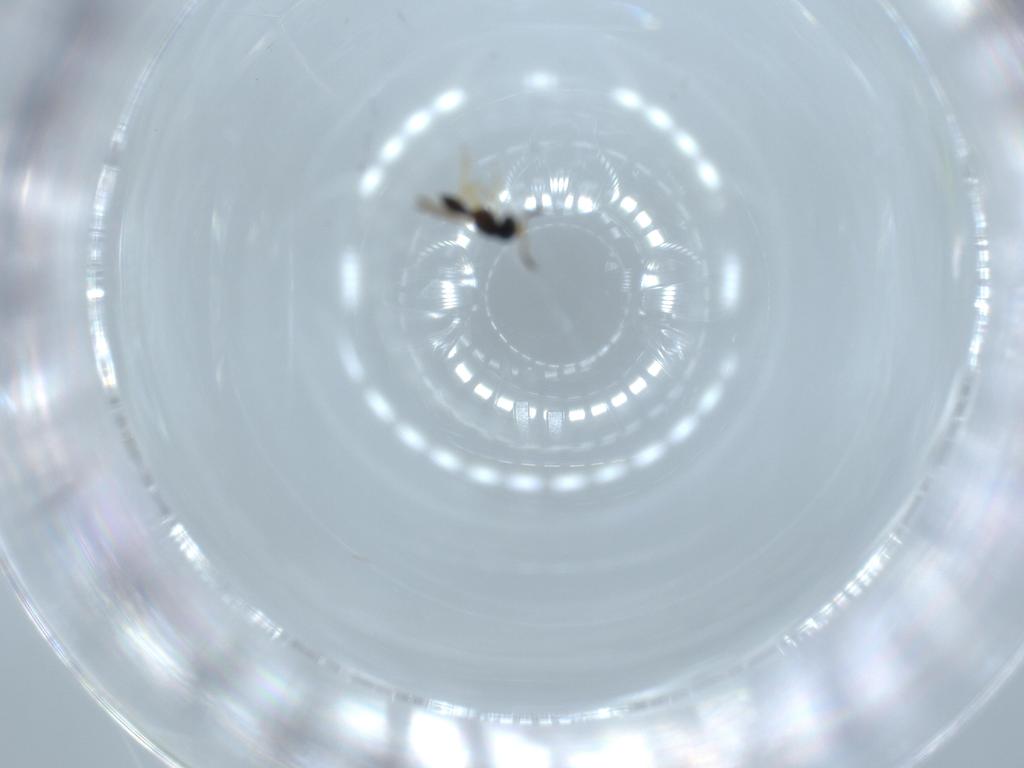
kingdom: Animalia
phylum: Arthropoda
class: Insecta
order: Hymenoptera
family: Scelionidae
